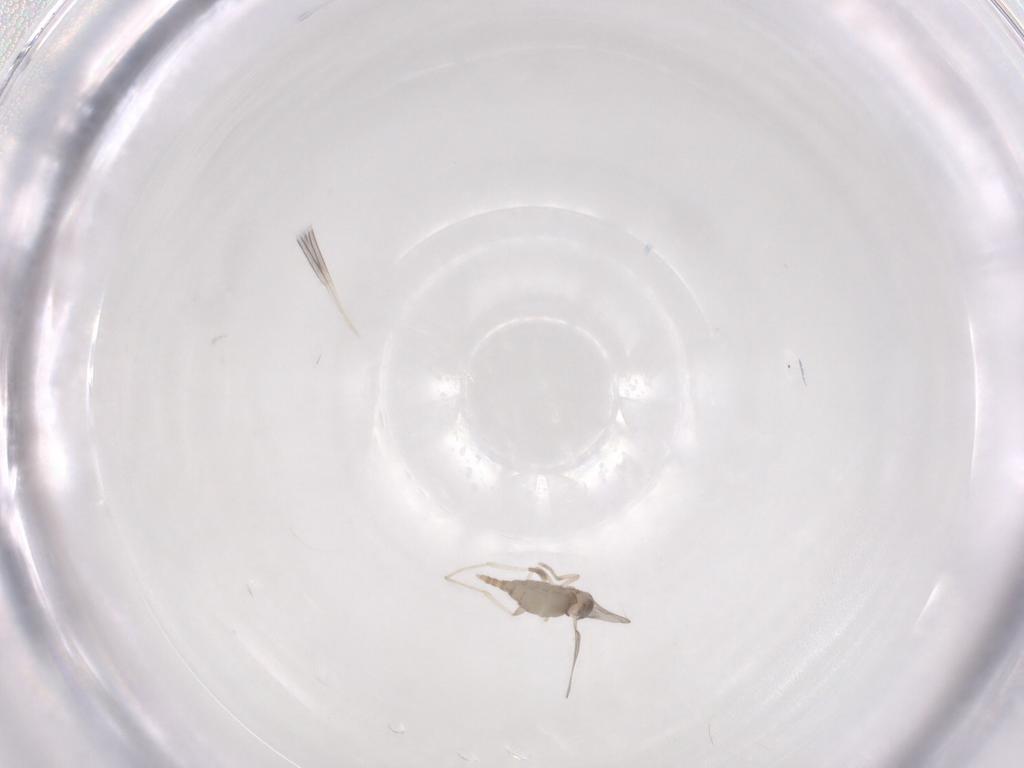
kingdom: Animalia
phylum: Arthropoda
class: Insecta
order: Diptera
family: Cecidomyiidae
